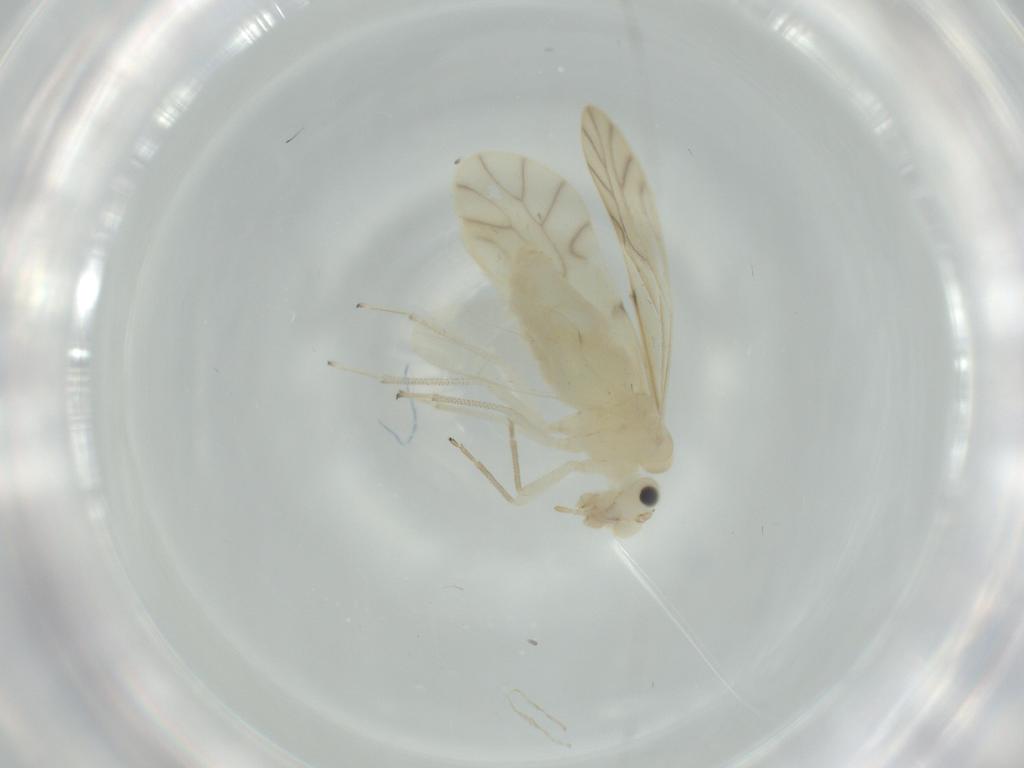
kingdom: Animalia
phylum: Arthropoda
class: Insecta
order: Psocodea
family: Caeciliusidae
